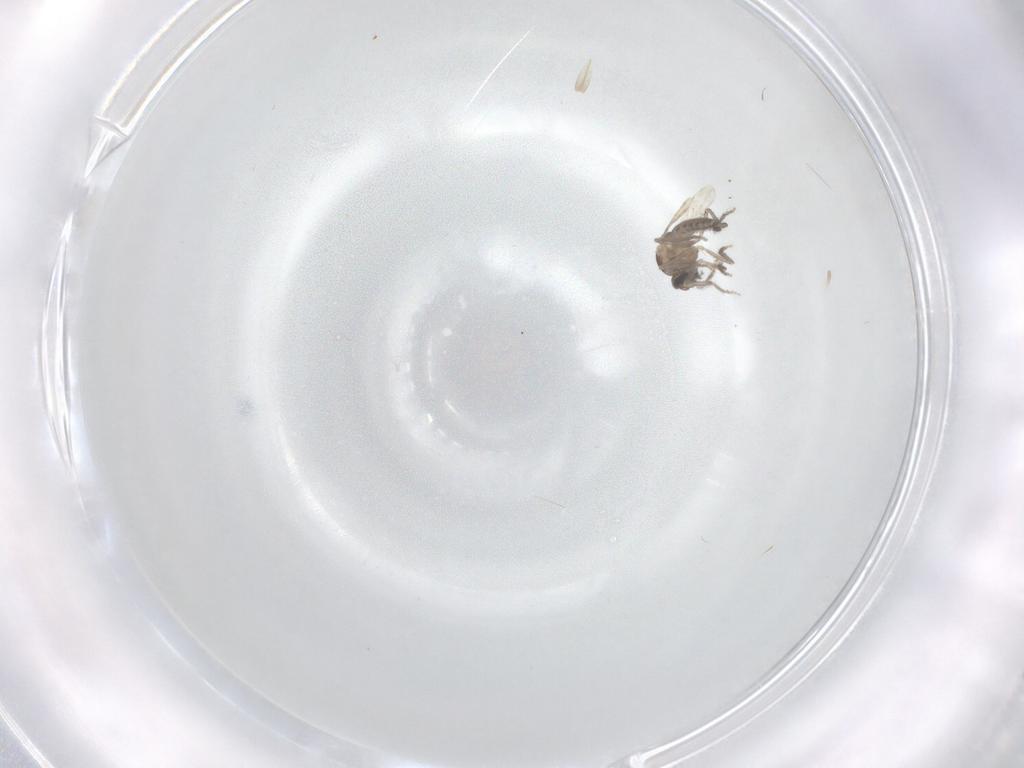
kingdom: Animalia
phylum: Arthropoda
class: Insecta
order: Diptera
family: Ceratopogonidae
